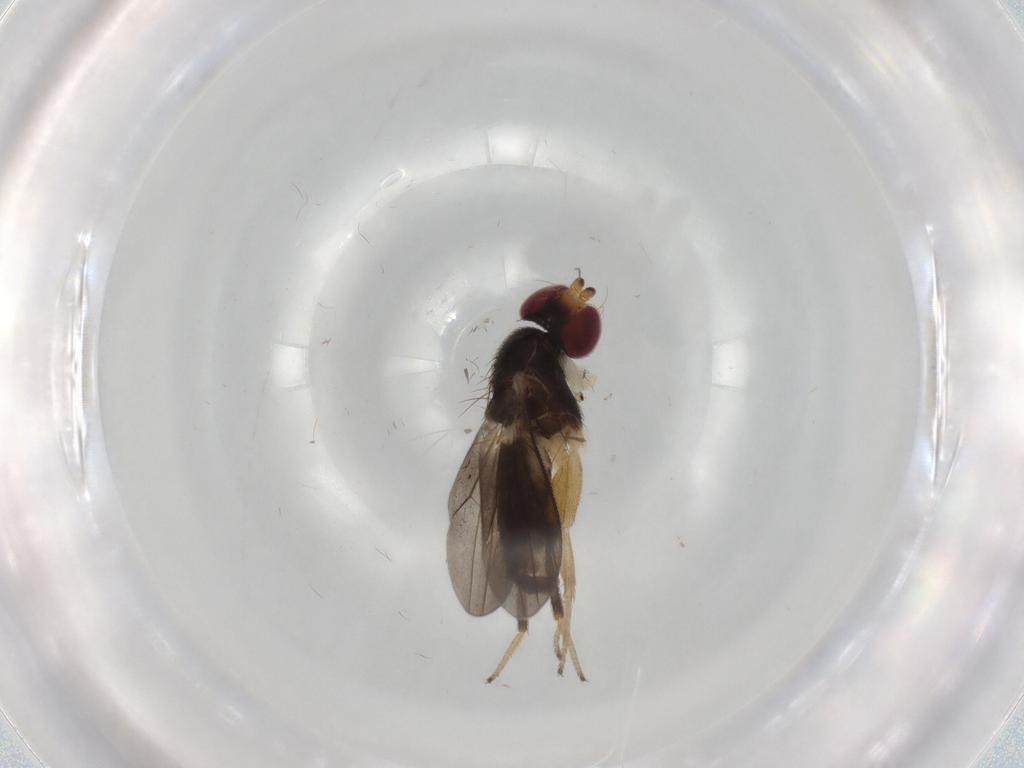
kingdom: Animalia
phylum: Arthropoda
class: Insecta
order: Diptera
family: Clusiidae
